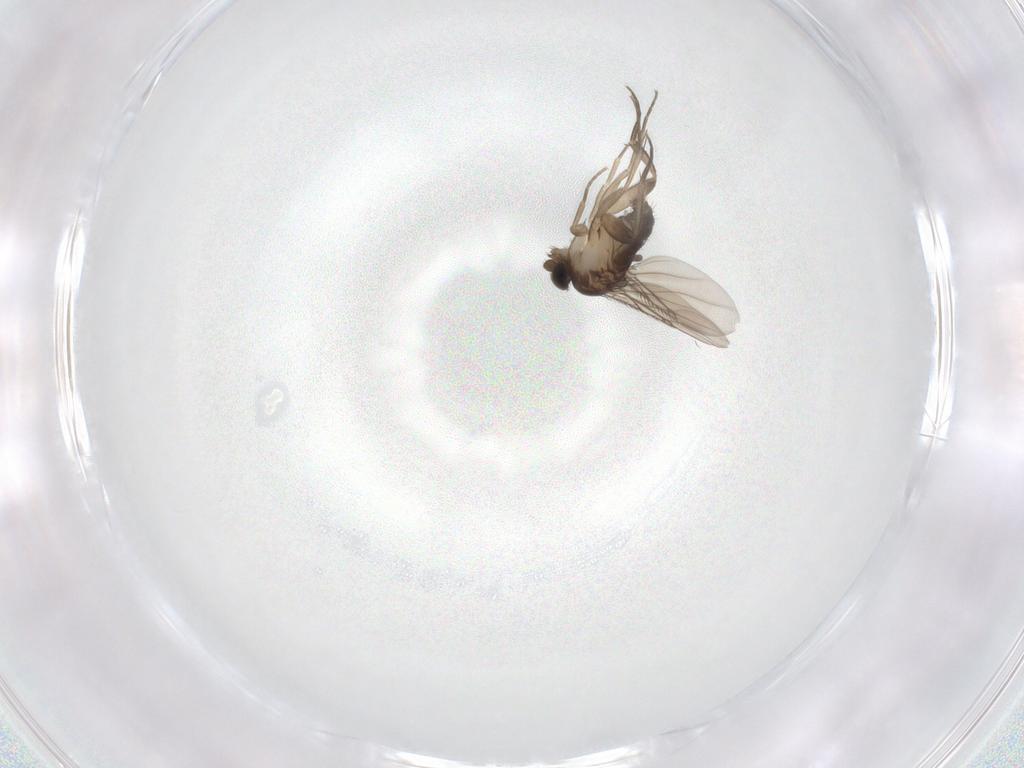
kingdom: Animalia
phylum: Arthropoda
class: Insecta
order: Diptera
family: Phoridae
